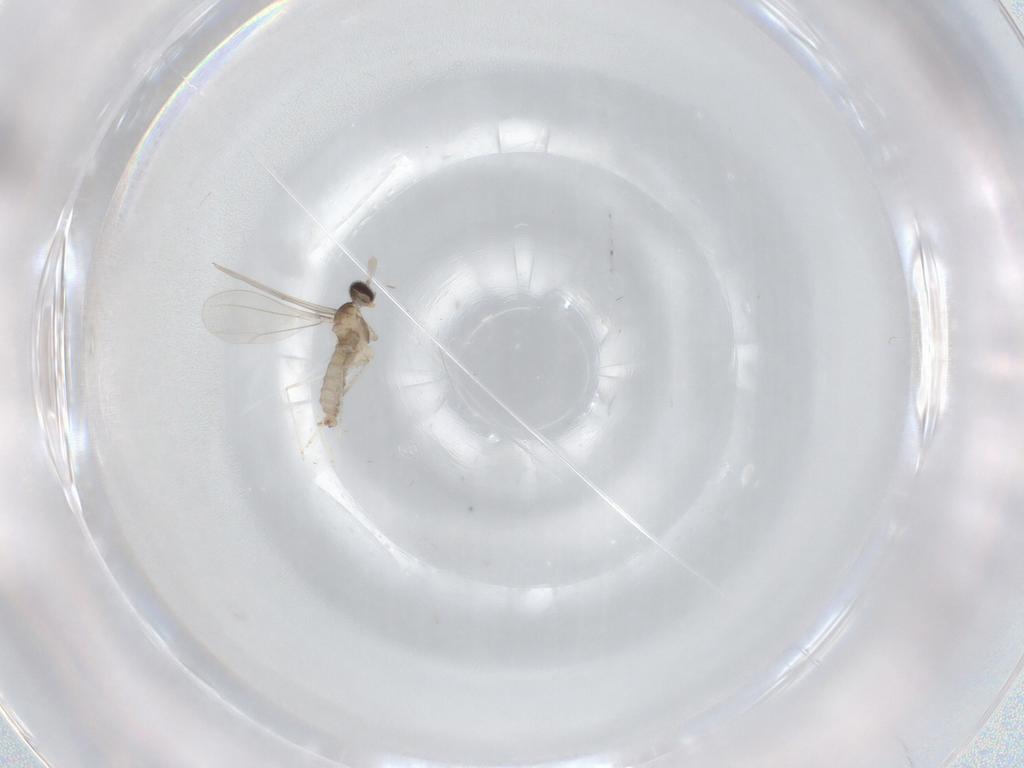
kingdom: Animalia
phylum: Arthropoda
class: Insecta
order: Diptera
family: Cecidomyiidae
